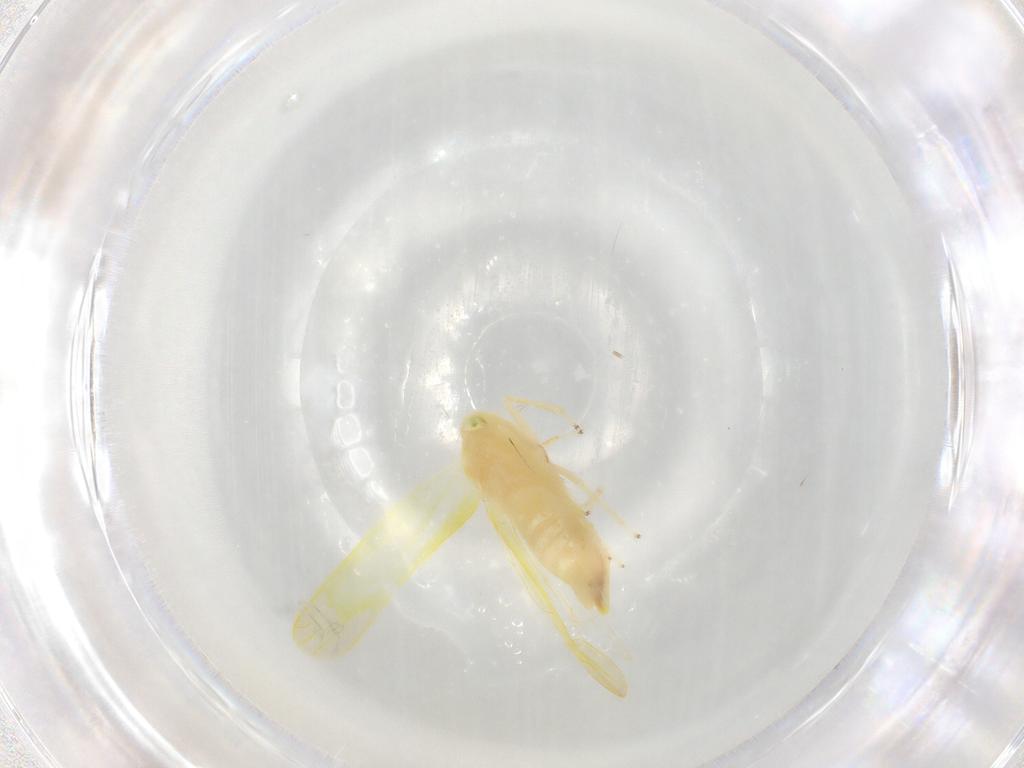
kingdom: Animalia
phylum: Arthropoda
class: Insecta
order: Hemiptera
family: Cicadellidae
